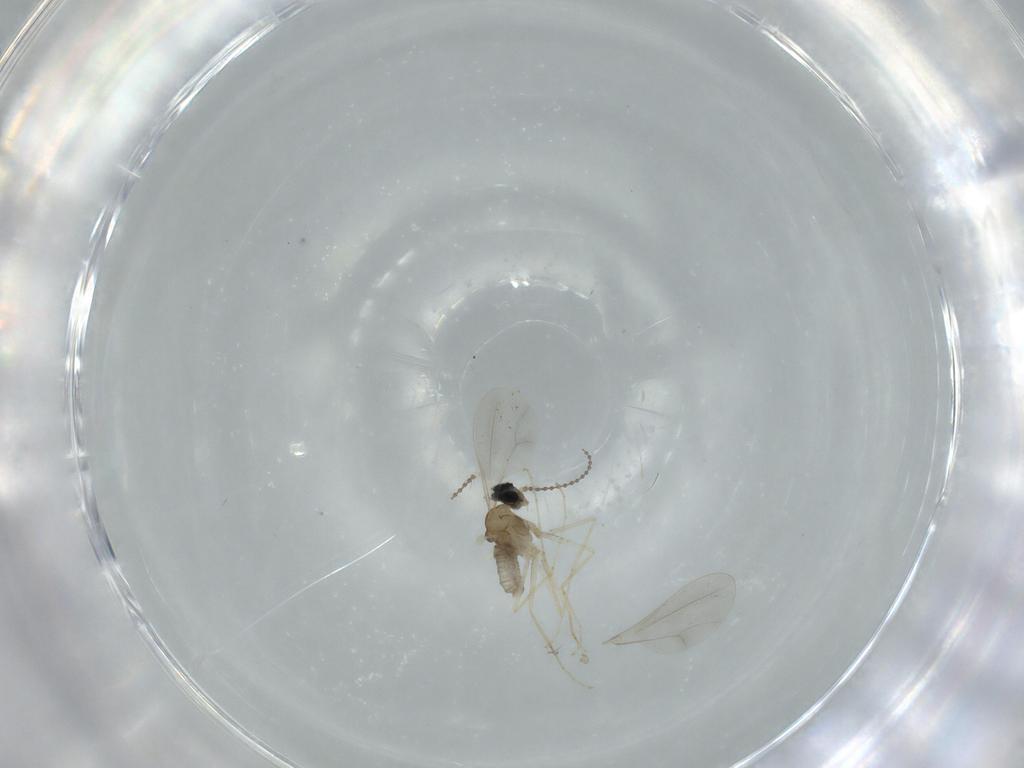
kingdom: Animalia
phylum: Arthropoda
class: Insecta
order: Diptera
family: Cecidomyiidae
